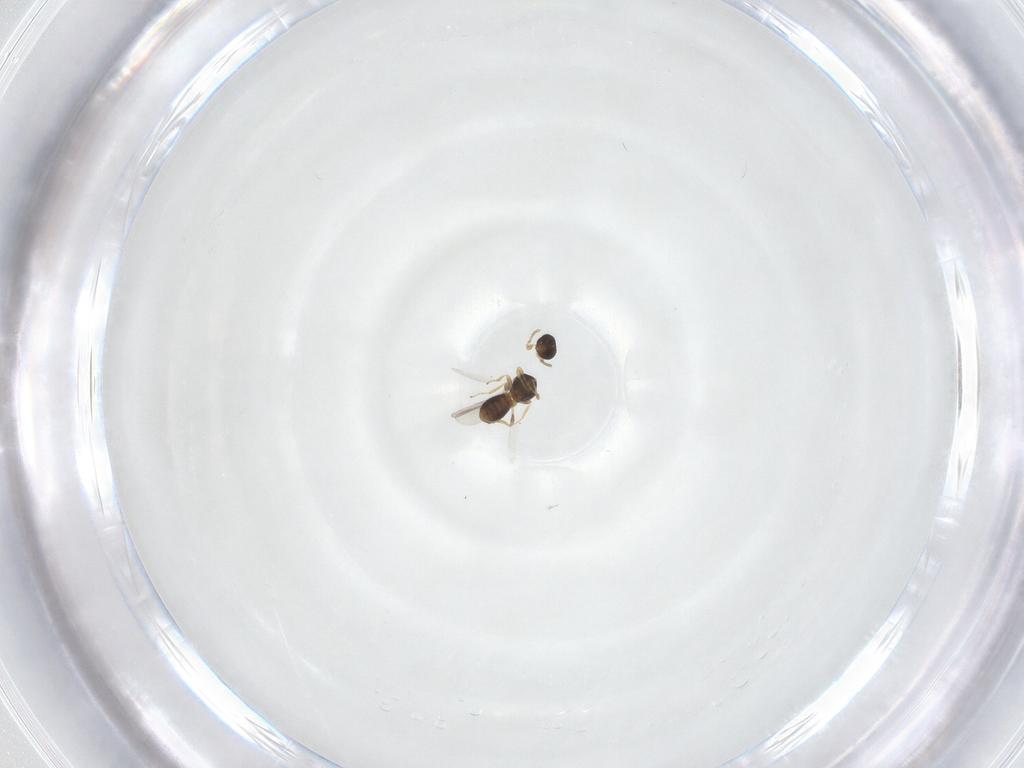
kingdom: Animalia
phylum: Arthropoda
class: Insecta
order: Hymenoptera
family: Platygastridae
